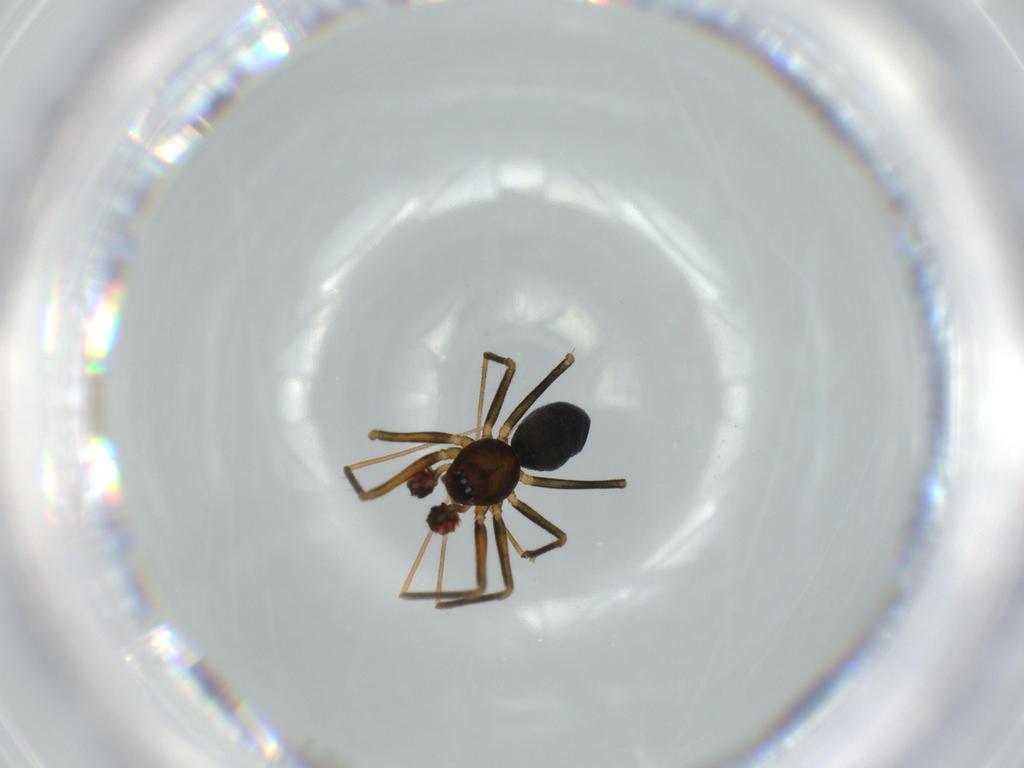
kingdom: Animalia
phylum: Arthropoda
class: Arachnida
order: Araneae
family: Linyphiidae
